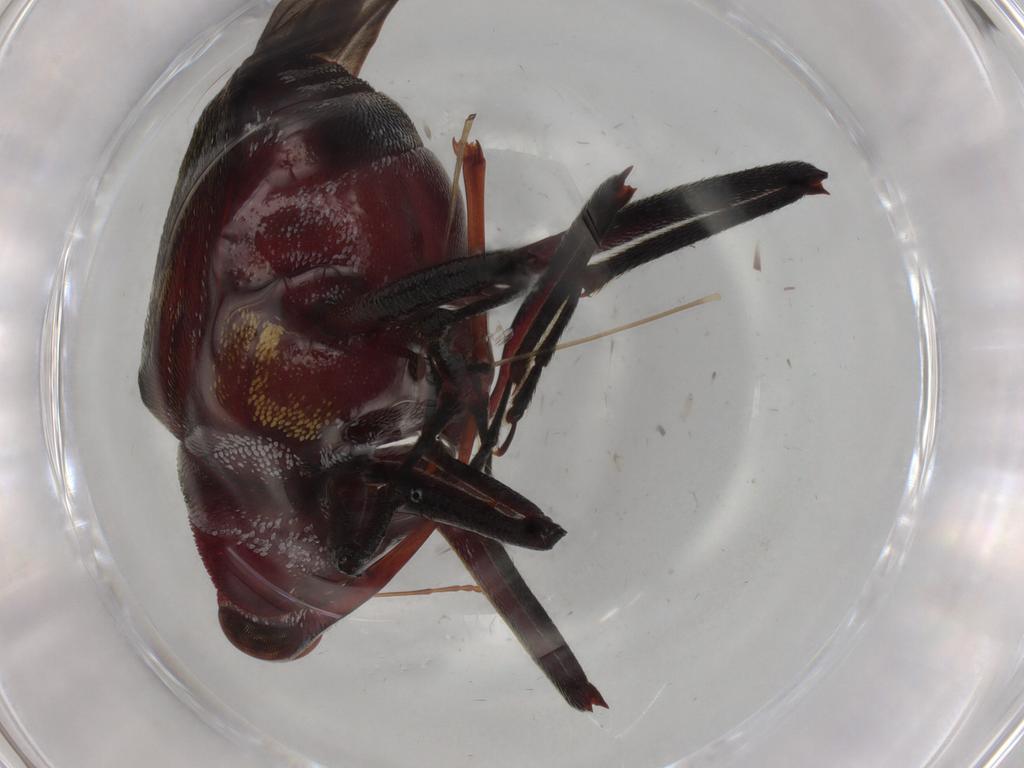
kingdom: Animalia
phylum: Arthropoda
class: Insecta
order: Coleoptera
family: Curculionidae
